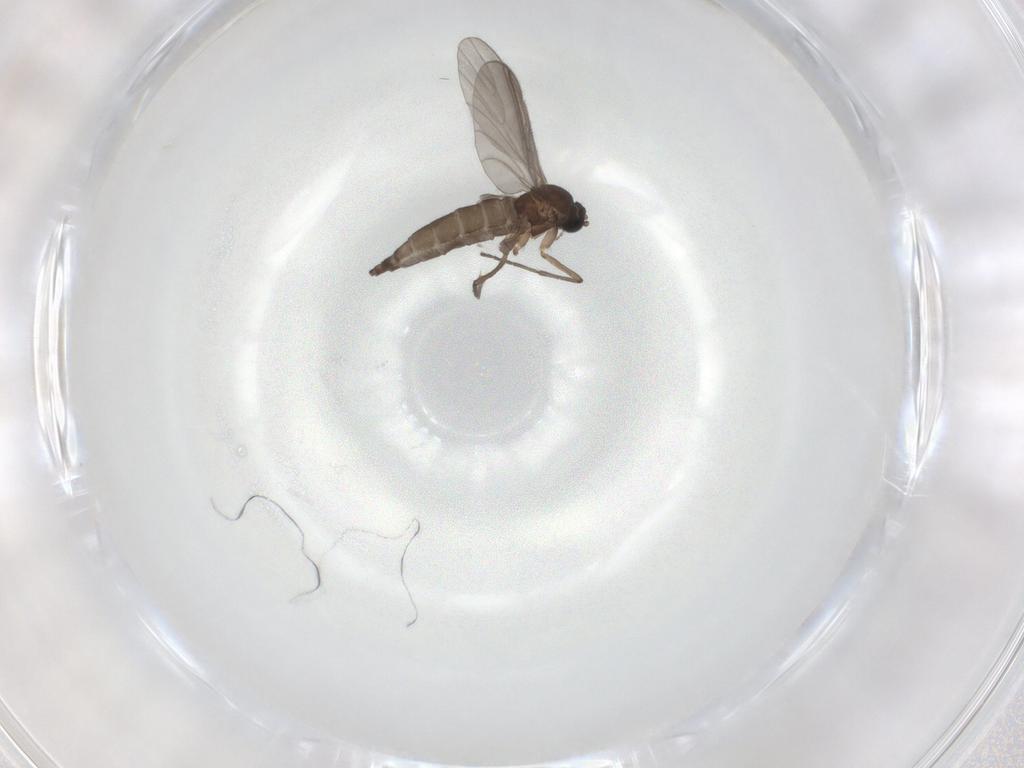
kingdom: Animalia
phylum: Arthropoda
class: Insecta
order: Diptera
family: Sciaridae
